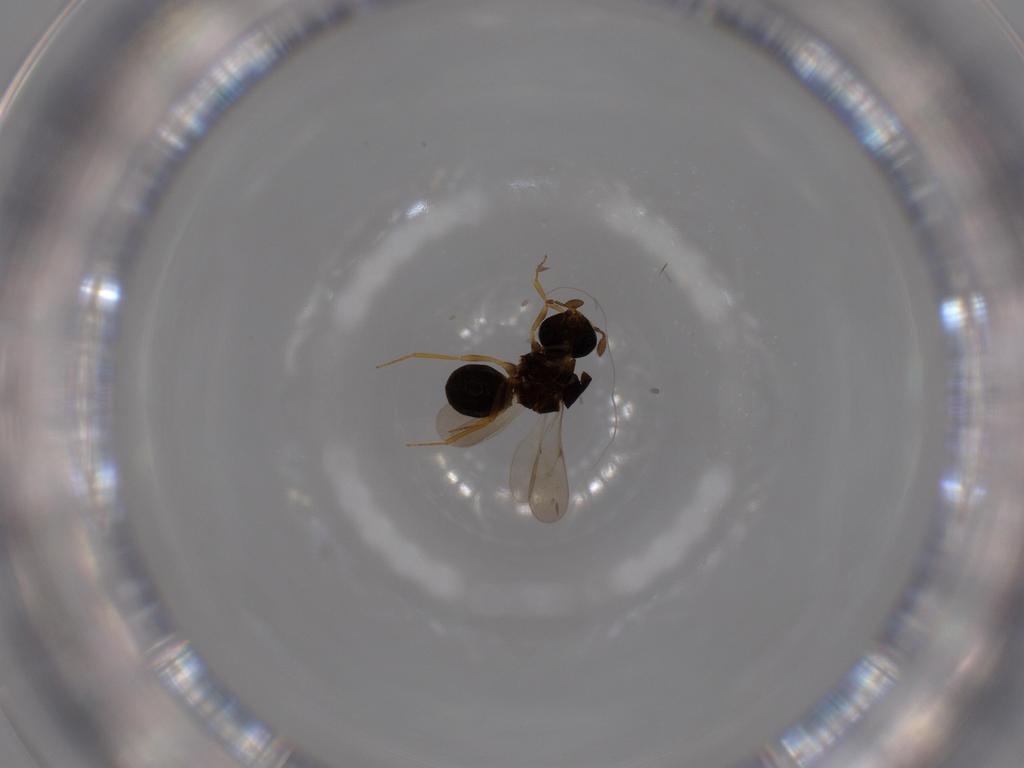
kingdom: Animalia
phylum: Arthropoda
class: Insecta
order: Hymenoptera
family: Scelionidae
